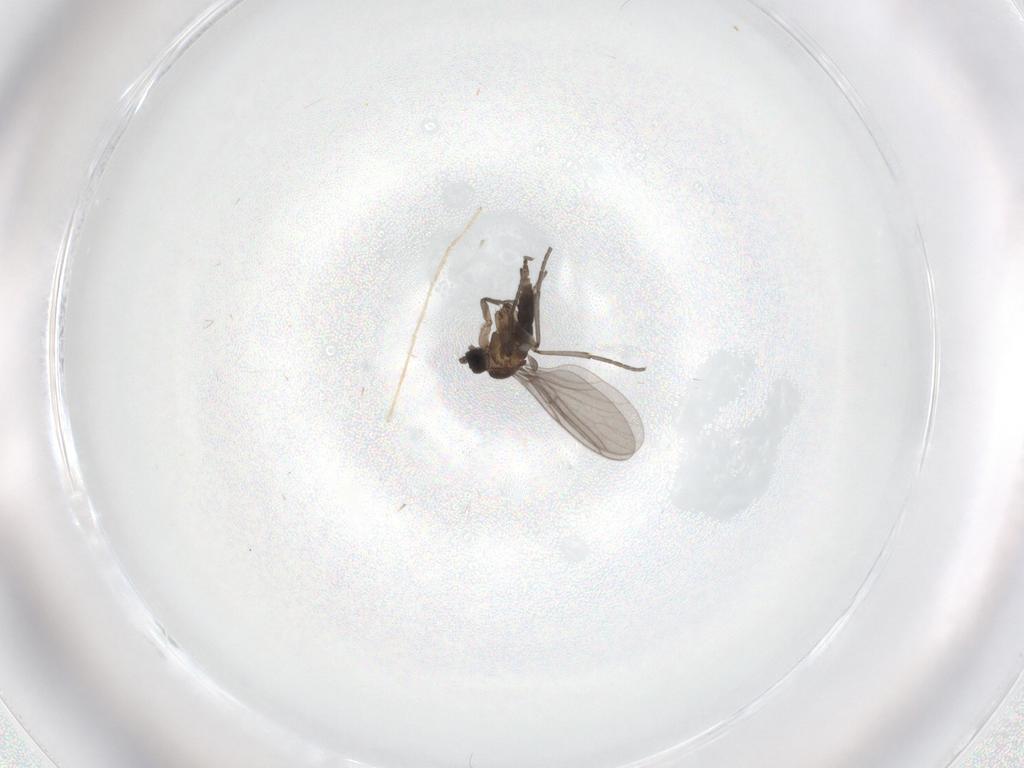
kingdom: Animalia
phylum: Arthropoda
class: Insecta
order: Diptera
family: Chironomidae
